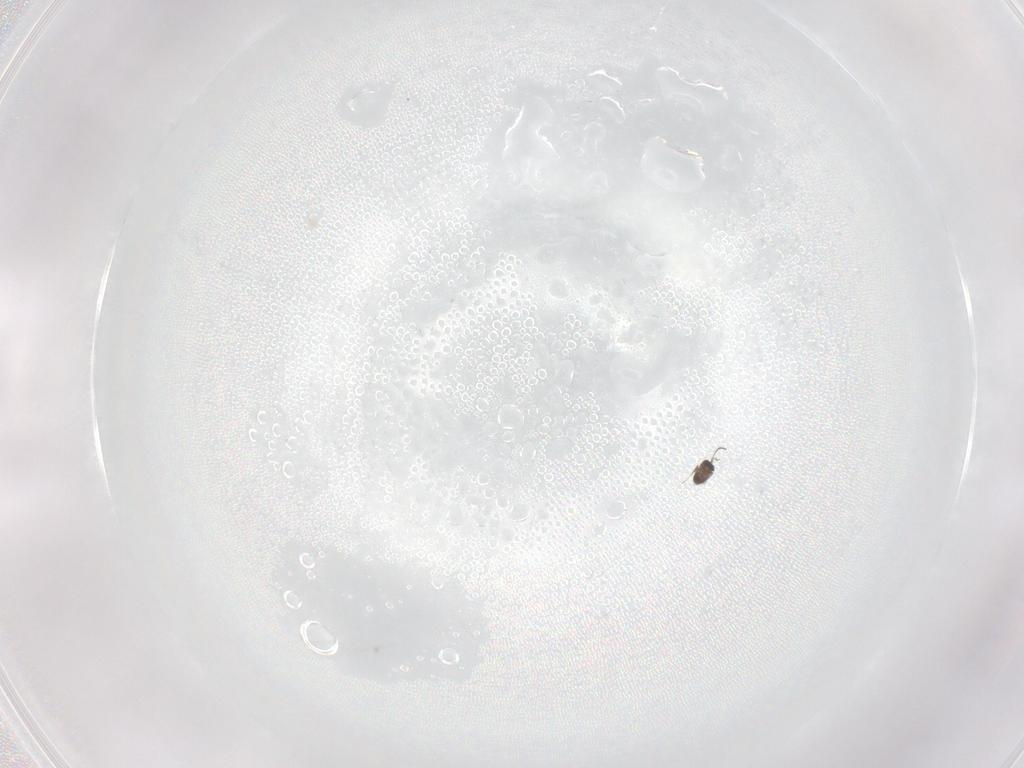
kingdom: Animalia
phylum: Arthropoda
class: Insecta
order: Hymenoptera
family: Mymaridae
